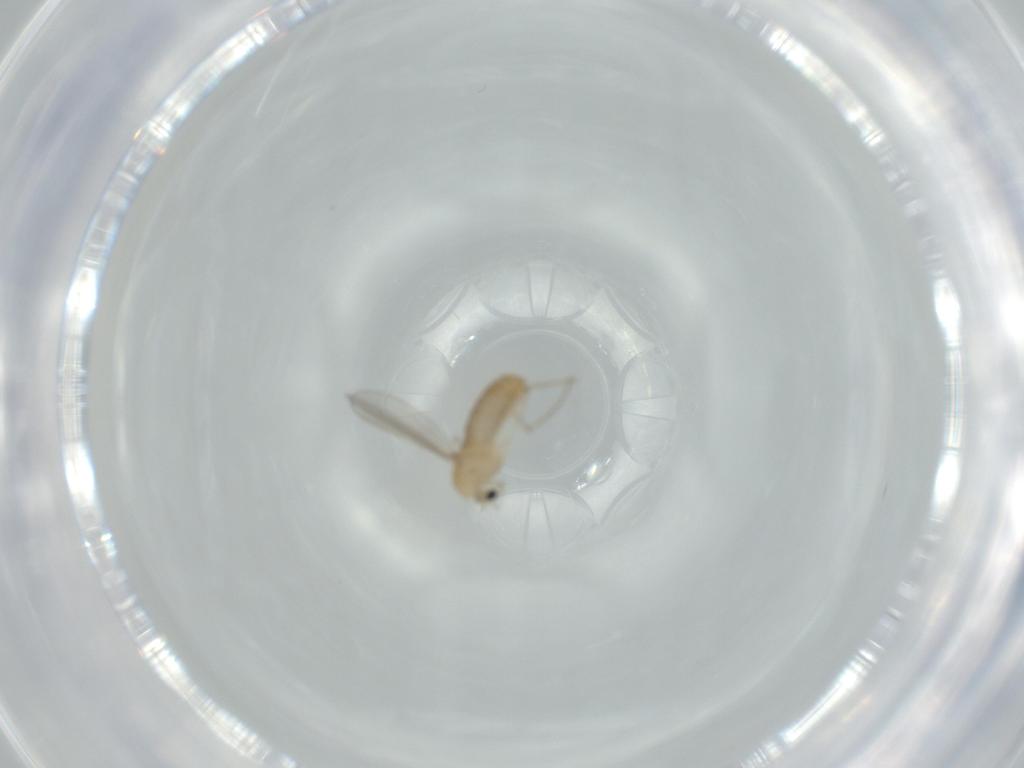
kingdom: Animalia
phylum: Arthropoda
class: Insecta
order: Diptera
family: Chironomidae
